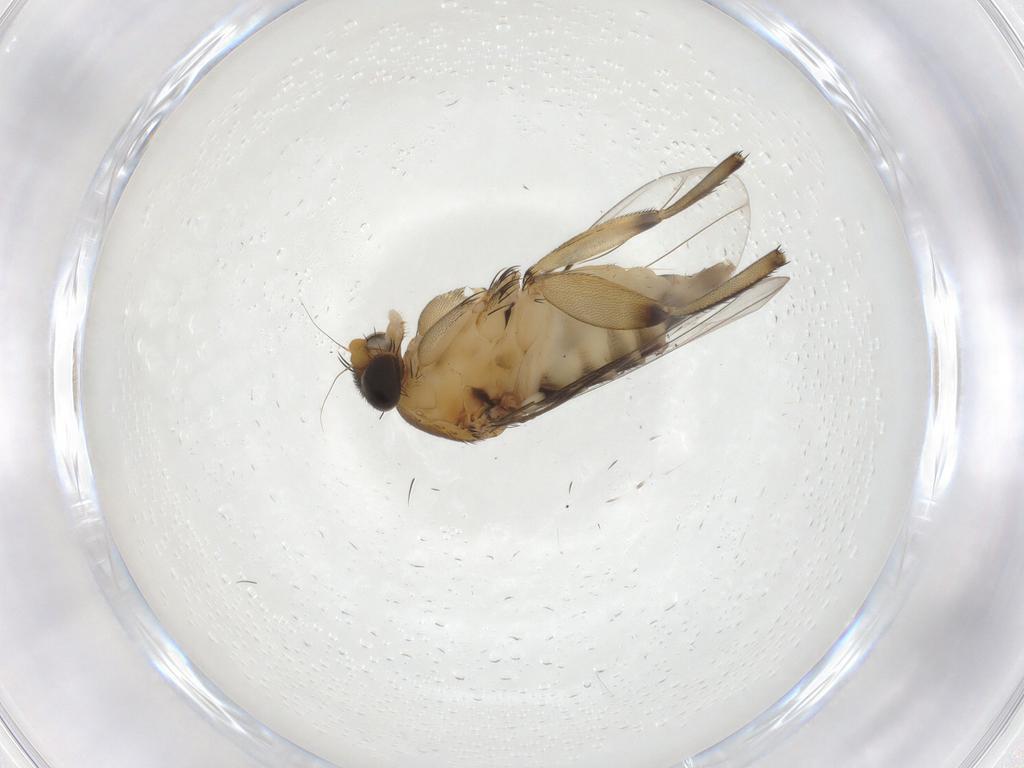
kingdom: Animalia
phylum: Arthropoda
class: Insecta
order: Diptera
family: Phoridae
